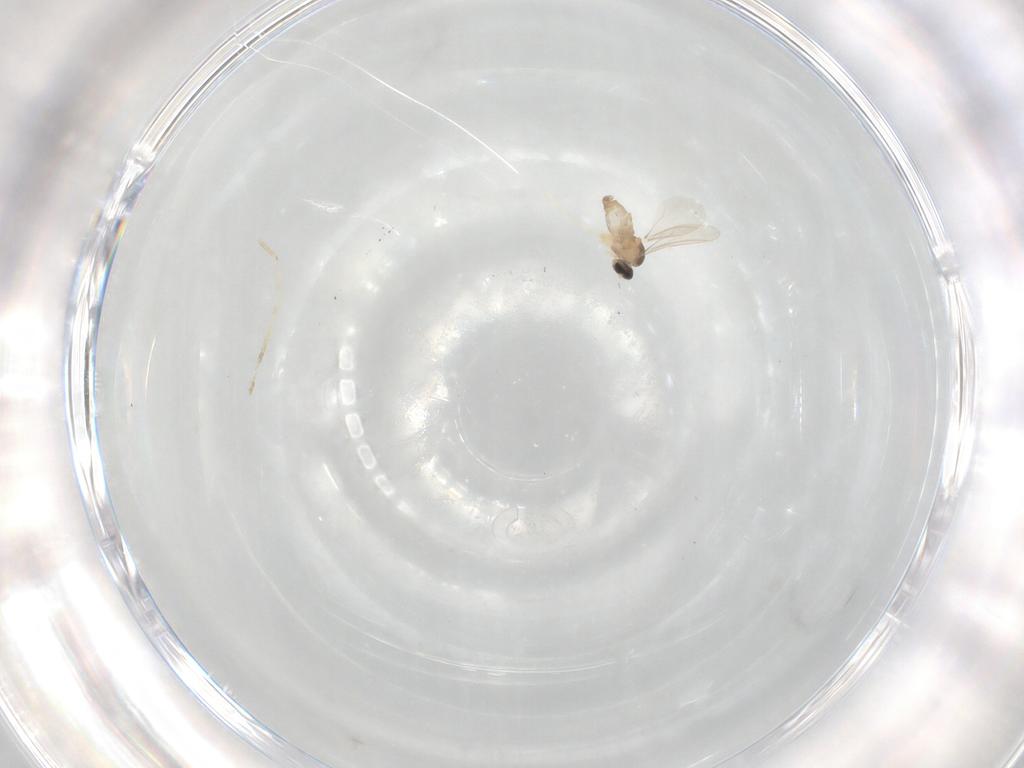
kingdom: Animalia
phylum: Arthropoda
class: Insecta
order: Diptera
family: Cecidomyiidae
